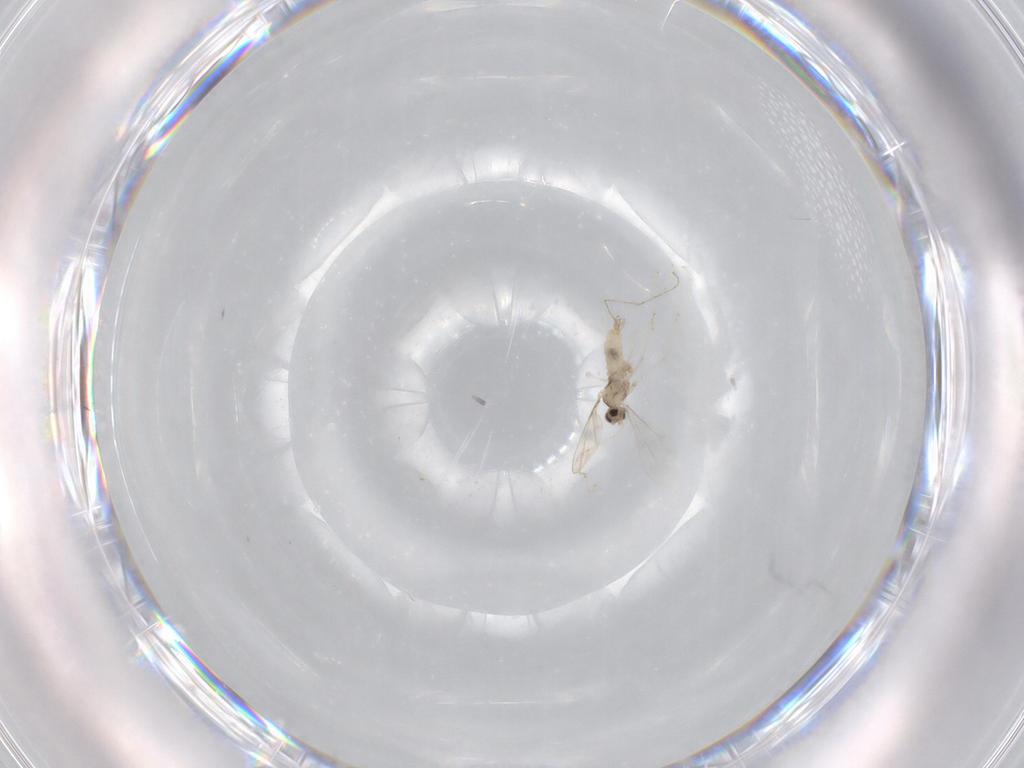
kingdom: Animalia
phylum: Arthropoda
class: Insecta
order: Diptera
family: Cecidomyiidae
